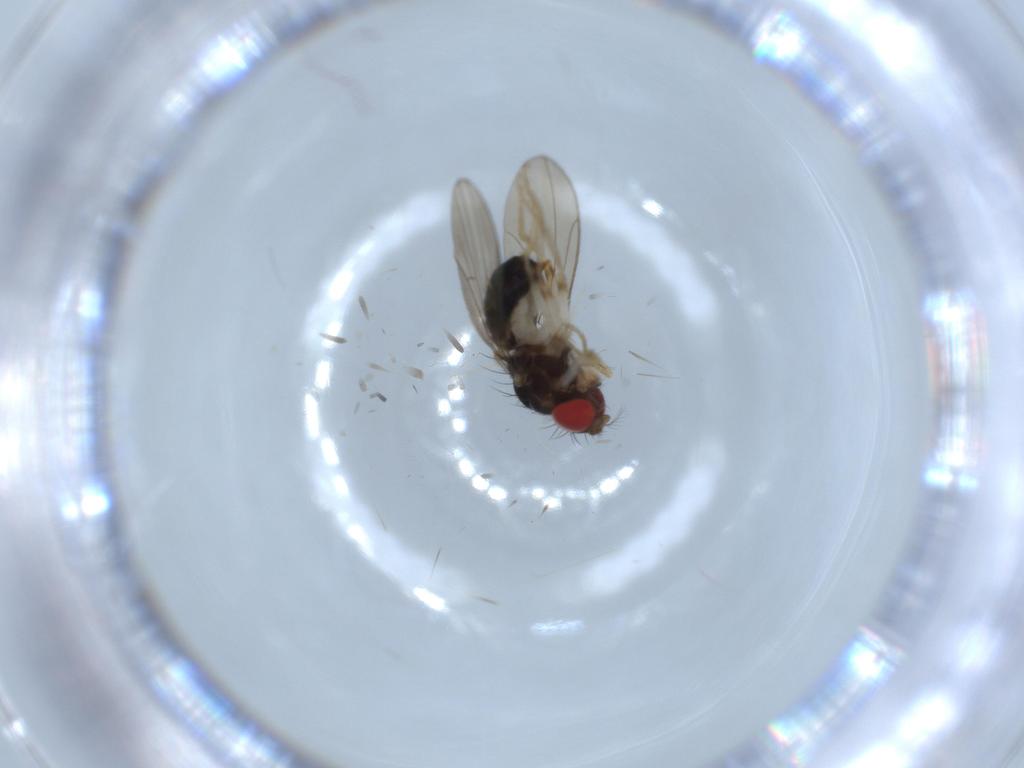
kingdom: Animalia
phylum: Arthropoda
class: Insecta
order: Diptera
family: Drosophilidae
